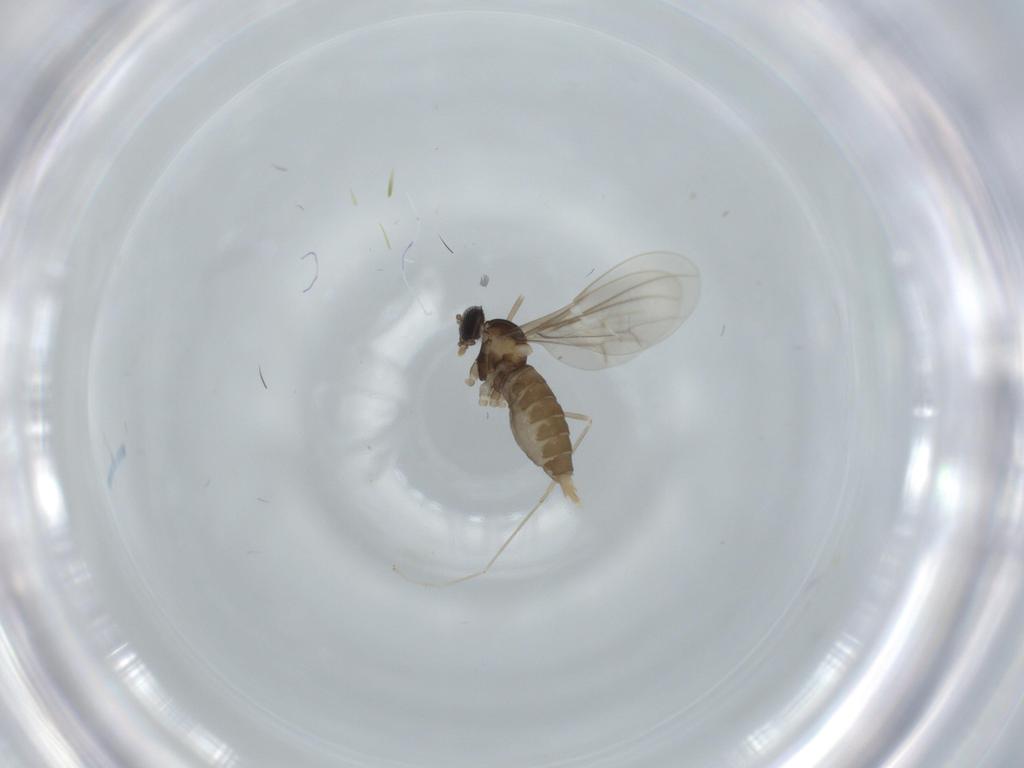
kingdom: Animalia
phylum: Arthropoda
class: Insecta
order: Diptera
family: Cecidomyiidae
